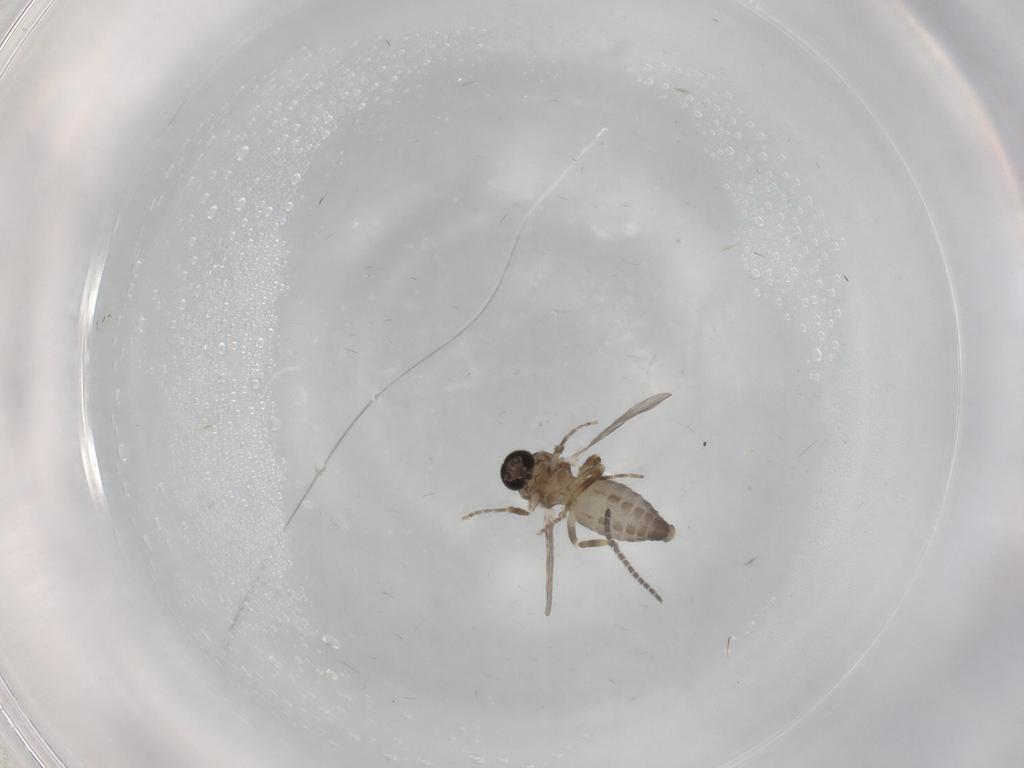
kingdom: Animalia
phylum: Arthropoda
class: Insecta
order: Diptera
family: Ceratopogonidae
